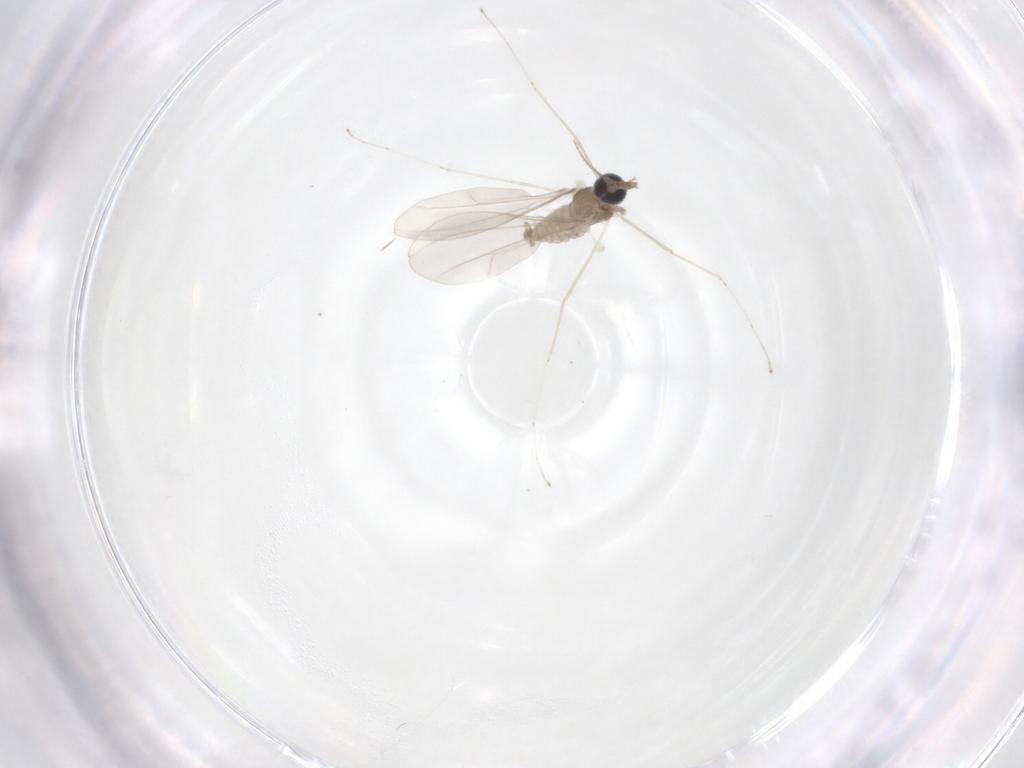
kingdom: Animalia
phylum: Arthropoda
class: Insecta
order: Diptera
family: Cecidomyiidae
